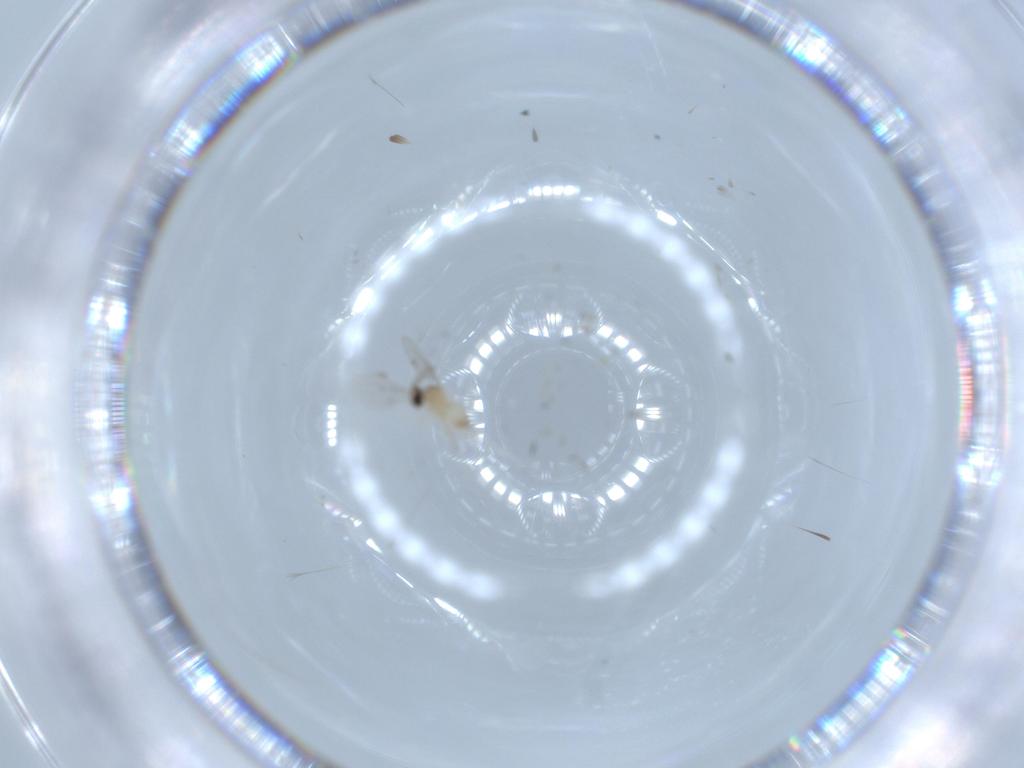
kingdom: Animalia
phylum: Arthropoda
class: Insecta
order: Diptera
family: Cecidomyiidae
